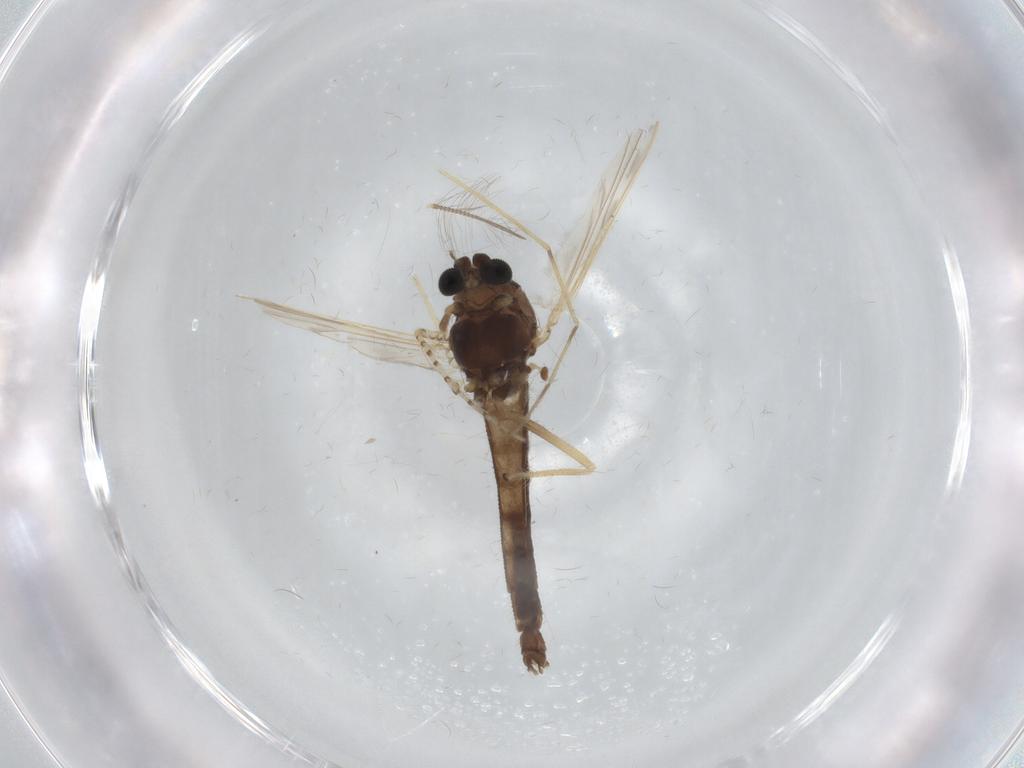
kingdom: Animalia
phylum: Arthropoda
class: Insecta
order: Diptera
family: Chironomidae
